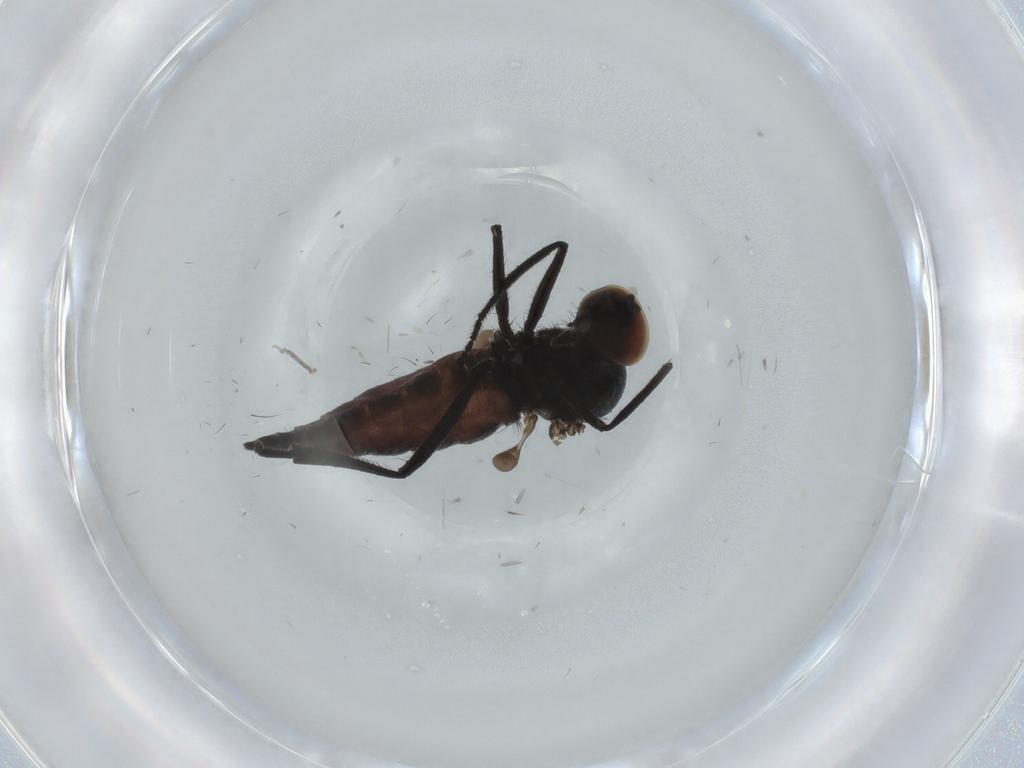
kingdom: Animalia
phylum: Arthropoda
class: Insecta
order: Diptera
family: Hybotidae
